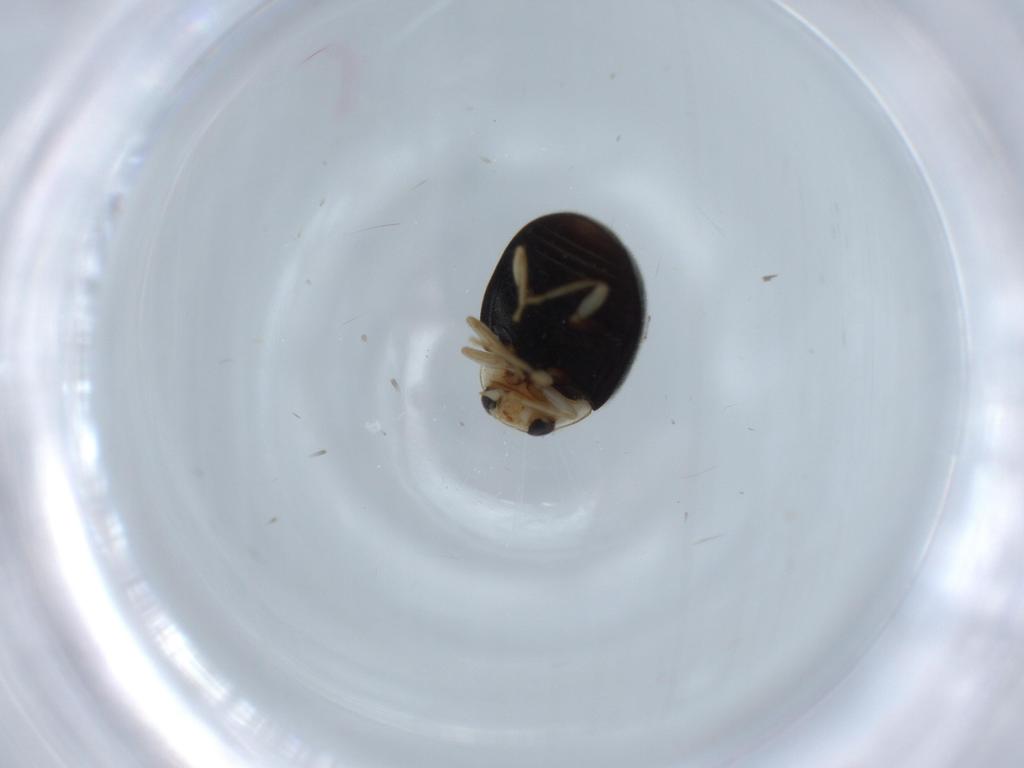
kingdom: Animalia
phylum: Arthropoda
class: Insecta
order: Coleoptera
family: Coccinellidae
